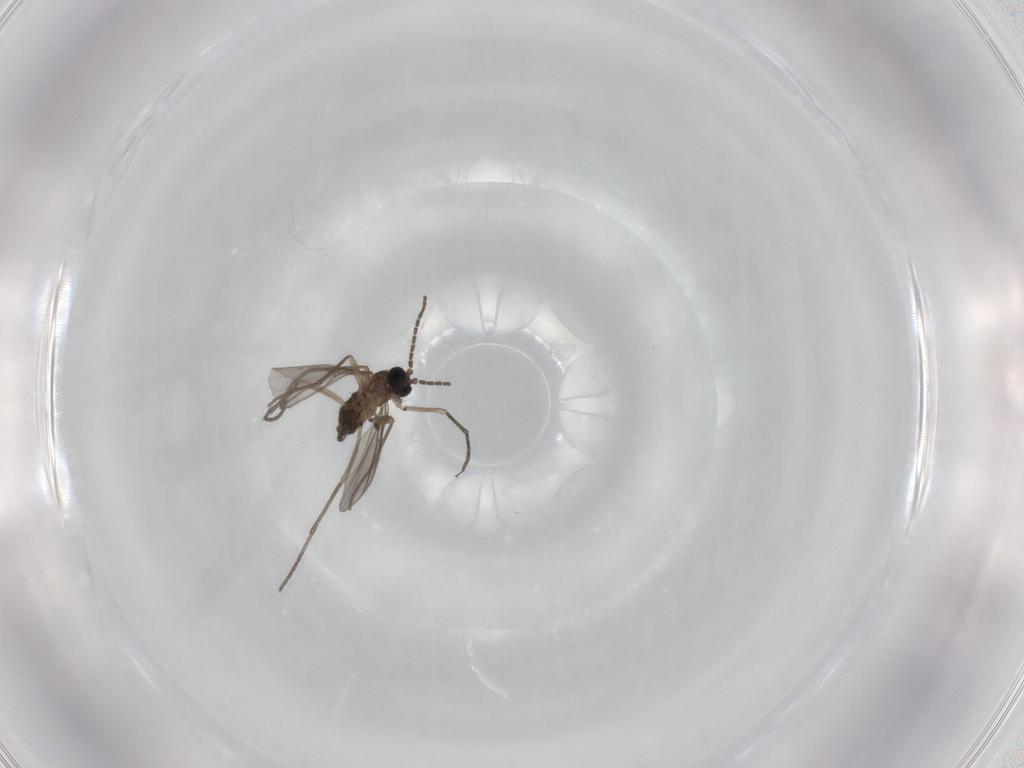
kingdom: Animalia
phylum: Arthropoda
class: Insecta
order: Diptera
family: Sciaridae
